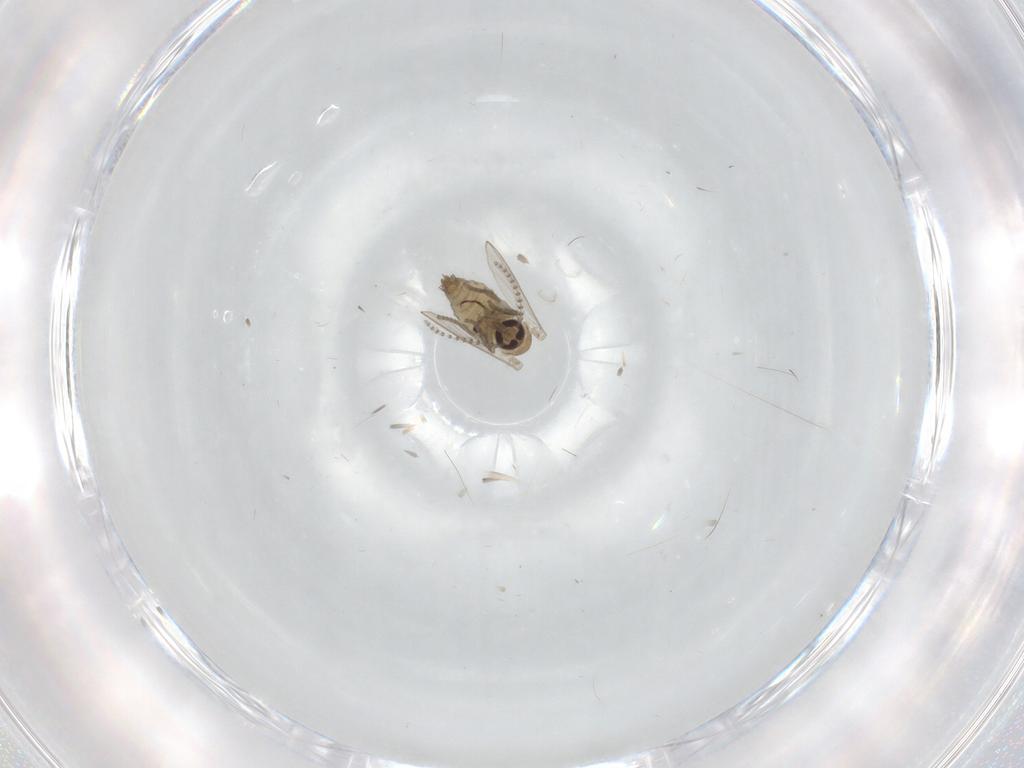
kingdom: Animalia
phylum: Arthropoda
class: Insecta
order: Diptera
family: Psychodidae
